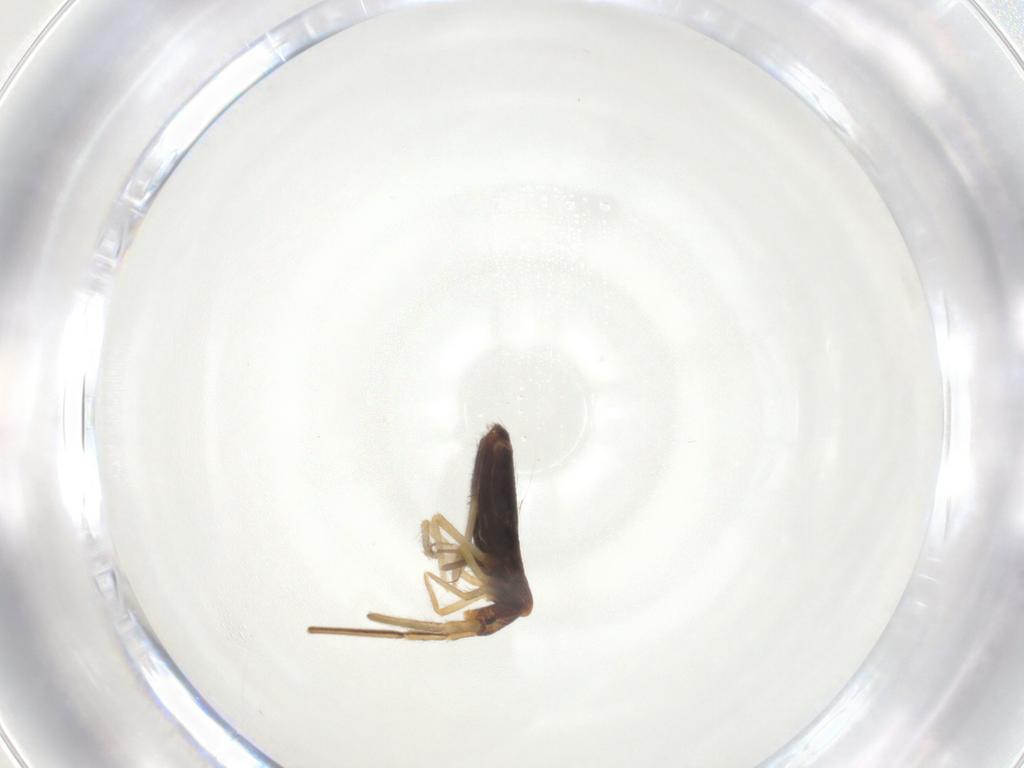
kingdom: Animalia
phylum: Arthropoda
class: Collembola
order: Entomobryomorpha
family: Entomobryidae
